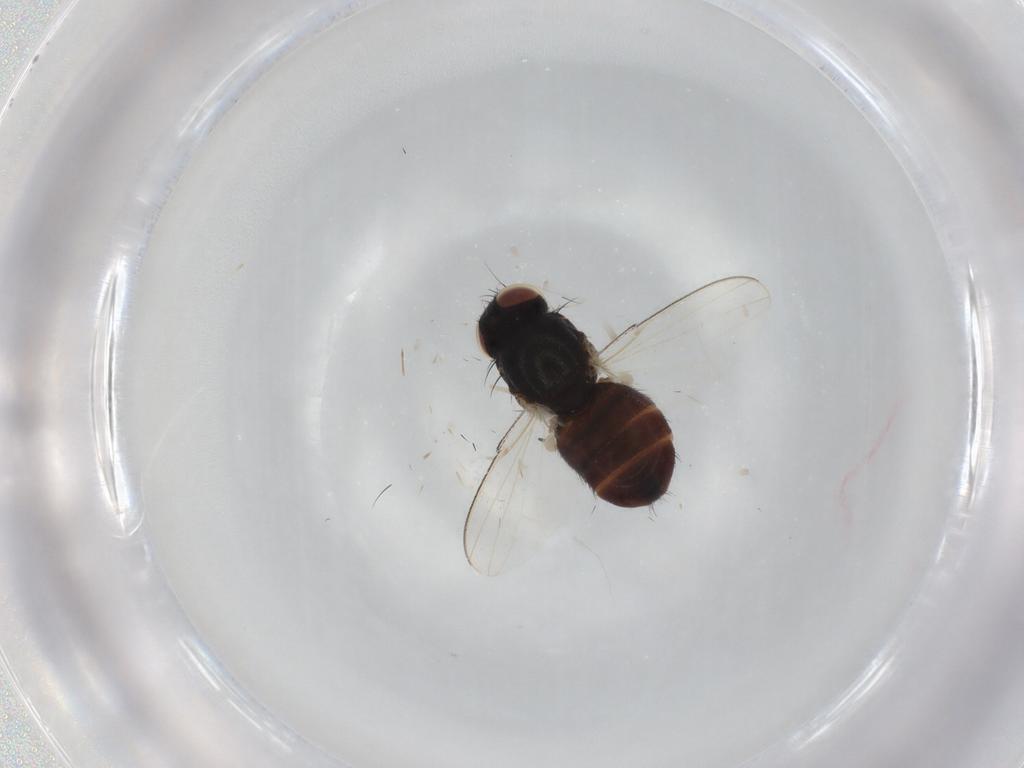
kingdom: Animalia
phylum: Arthropoda
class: Insecta
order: Diptera
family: Milichiidae
